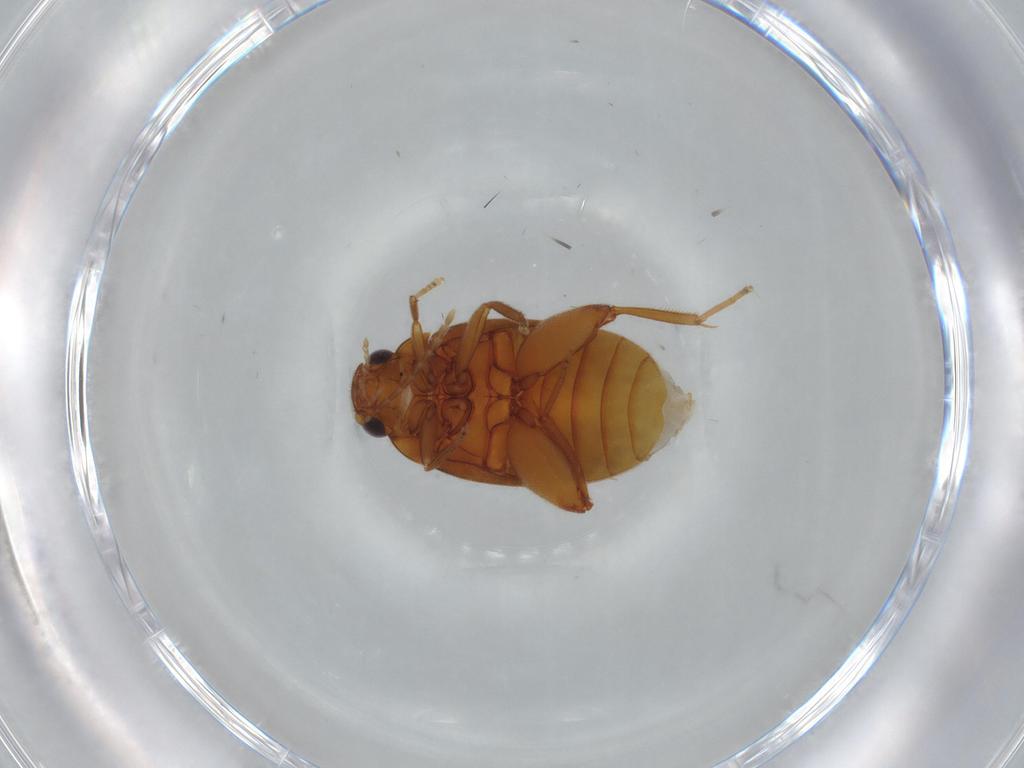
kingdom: Animalia
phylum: Arthropoda
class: Insecta
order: Coleoptera
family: Scirtidae
